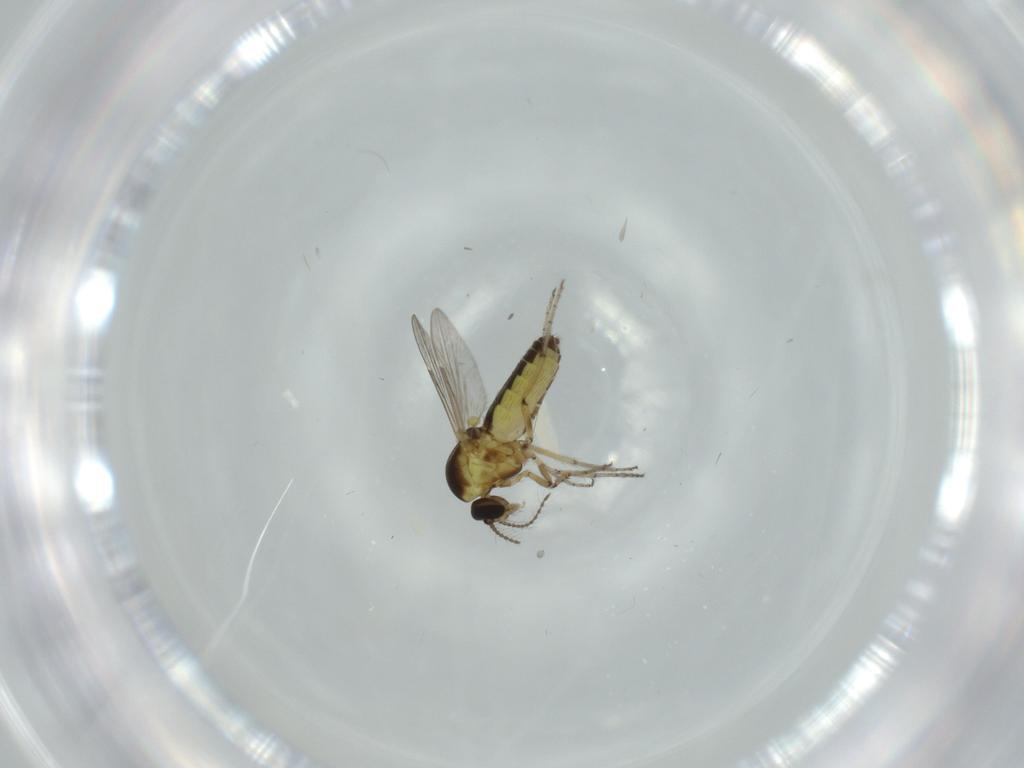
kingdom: Animalia
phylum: Arthropoda
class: Insecta
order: Diptera
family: Ceratopogonidae
